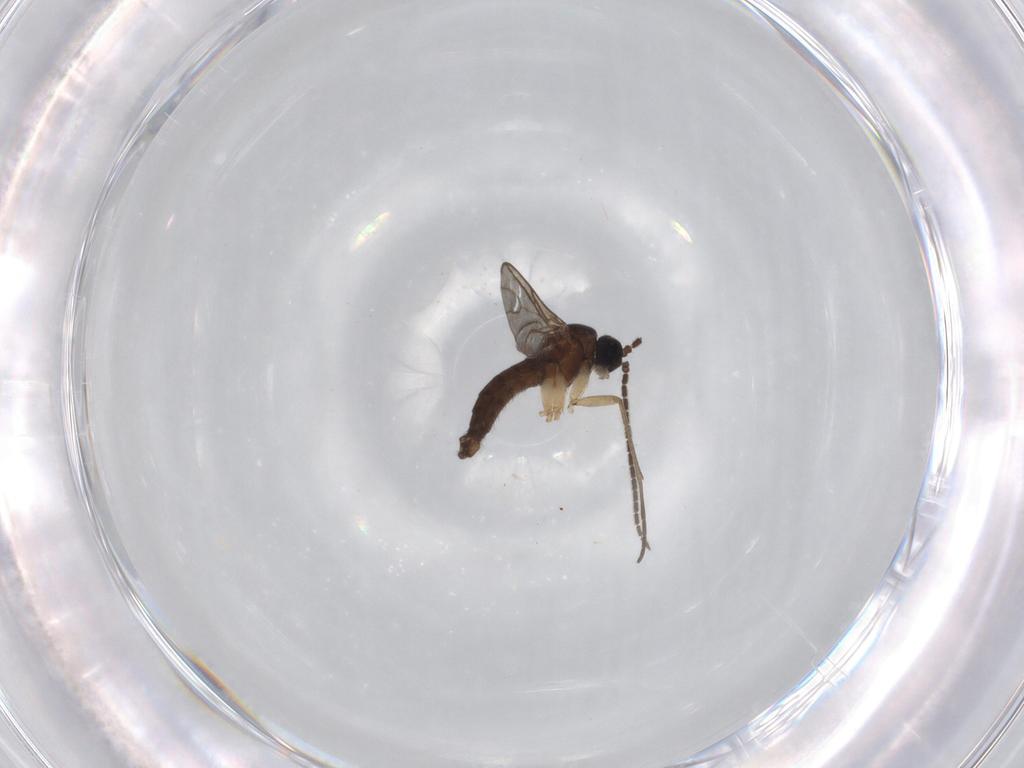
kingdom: Animalia
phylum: Arthropoda
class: Insecta
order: Diptera
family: Sciaridae
